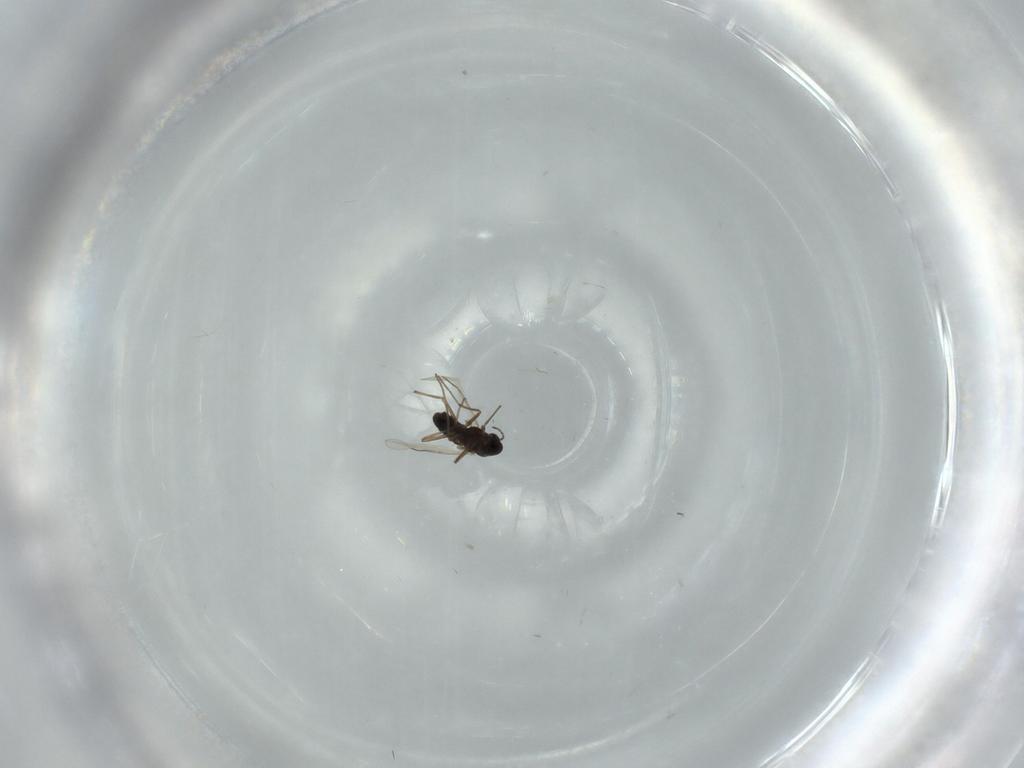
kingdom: Animalia
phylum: Arthropoda
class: Insecta
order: Diptera
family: Chironomidae
